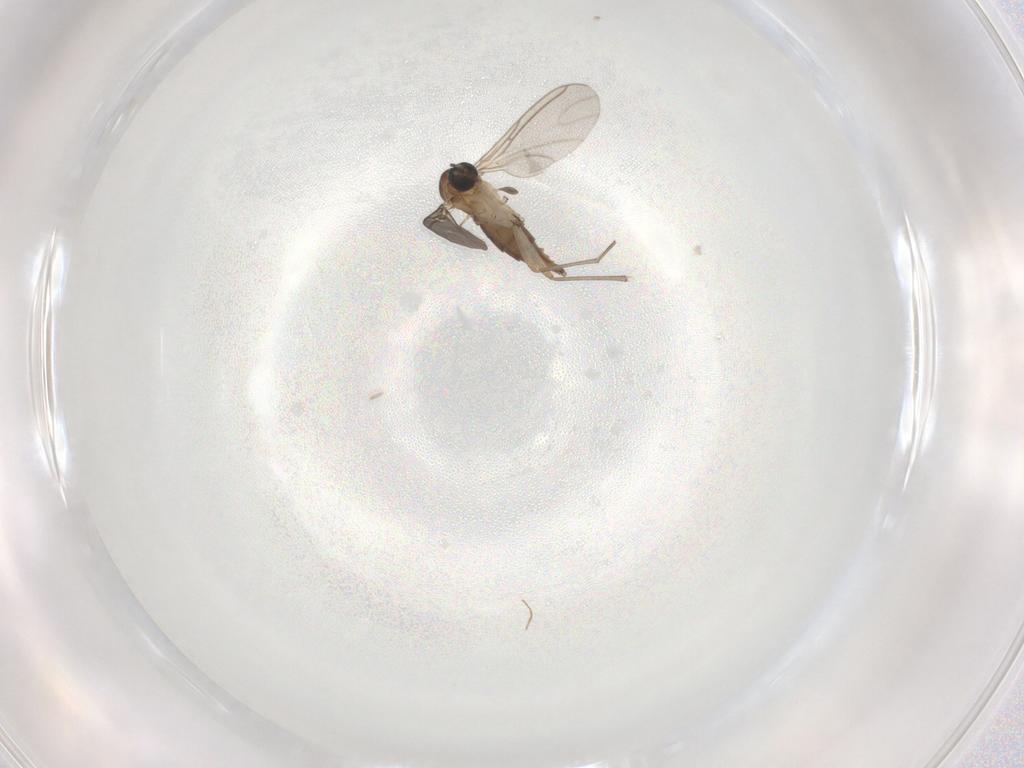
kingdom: Animalia
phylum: Arthropoda
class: Insecta
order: Diptera
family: Sciaridae
